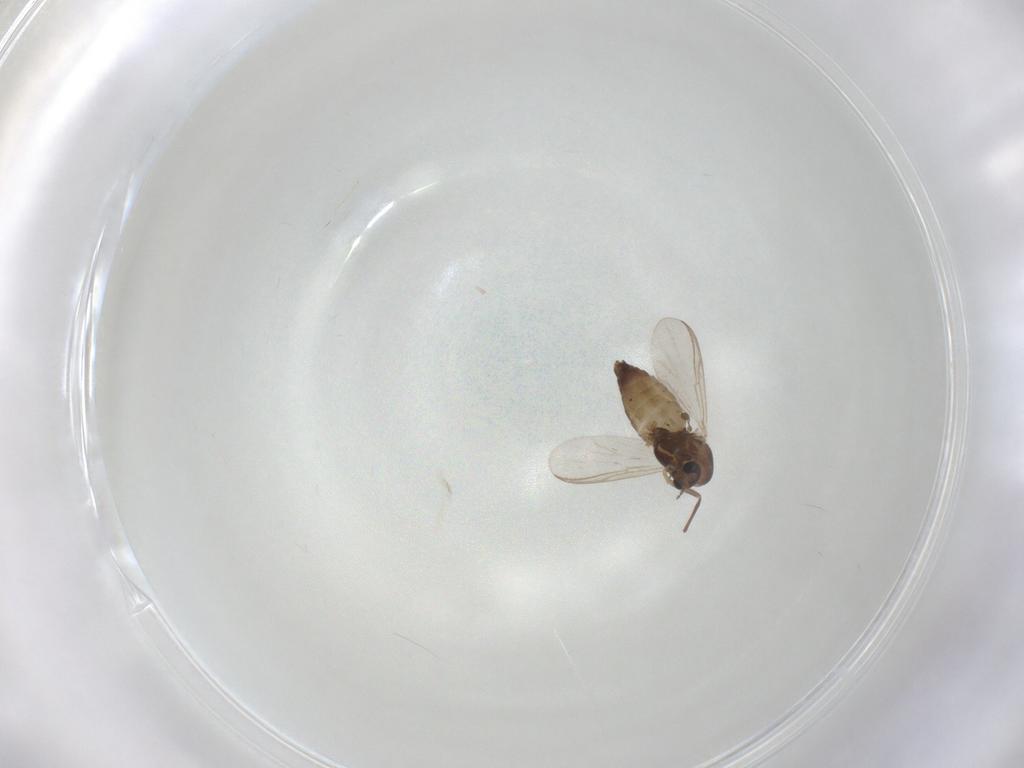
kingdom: Animalia
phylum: Arthropoda
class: Insecta
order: Diptera
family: Chironomidae
